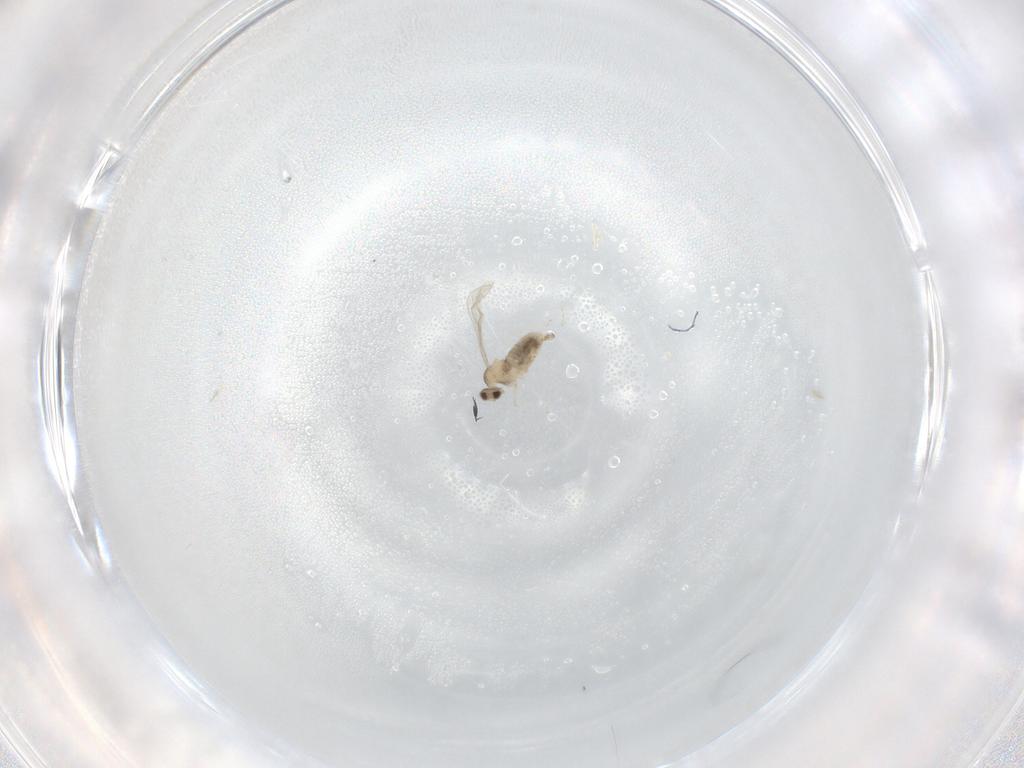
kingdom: Animalia
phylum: Arthropoda
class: Insecta
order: Diptera
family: Cecidomyiidae
